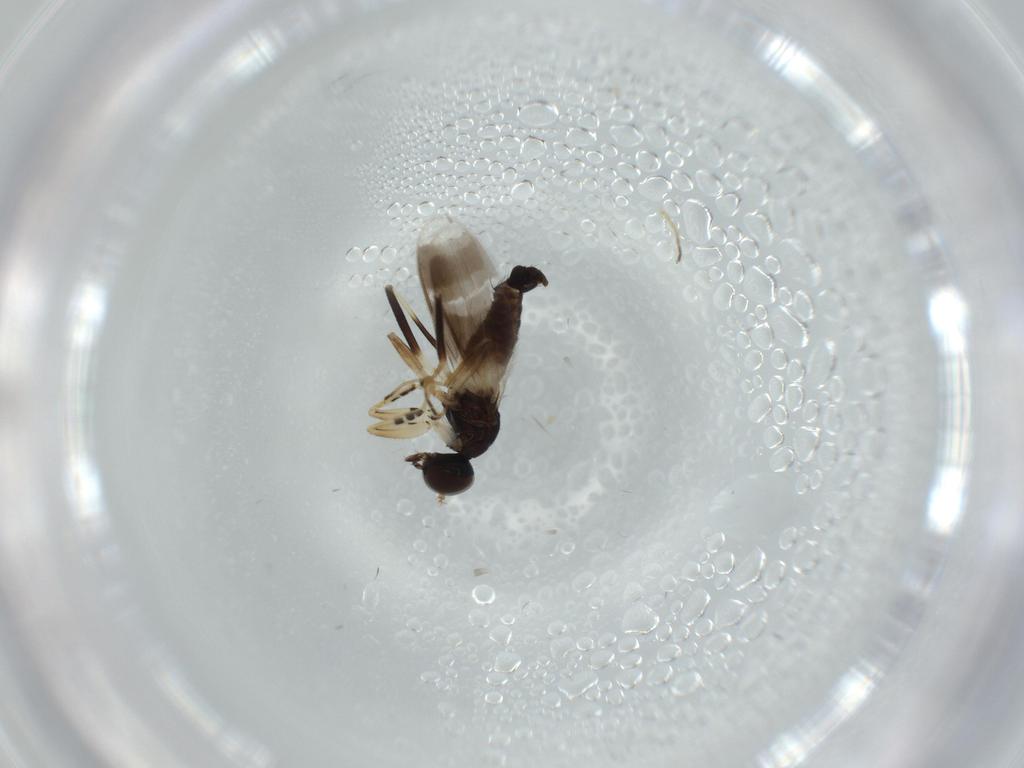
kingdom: Animalia
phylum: Arthropoda
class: Insecta
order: Diptera
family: Hybotidae
